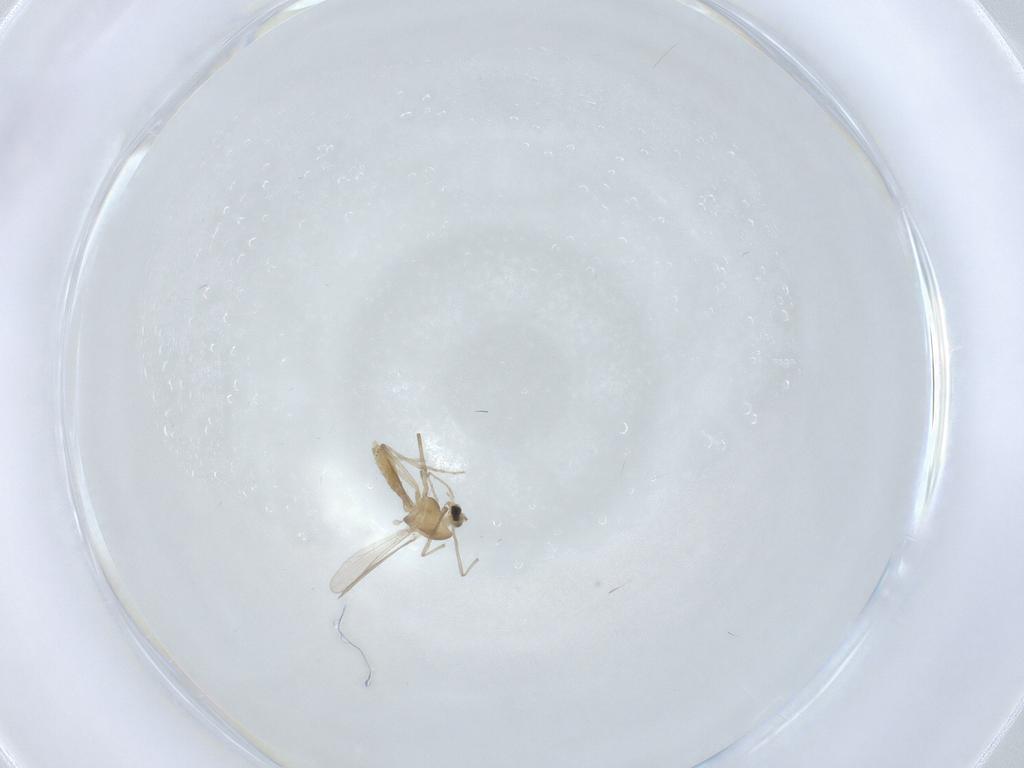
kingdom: Animalia
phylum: Arthropoda
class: Insecta
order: Diptera
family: Chironomidae
